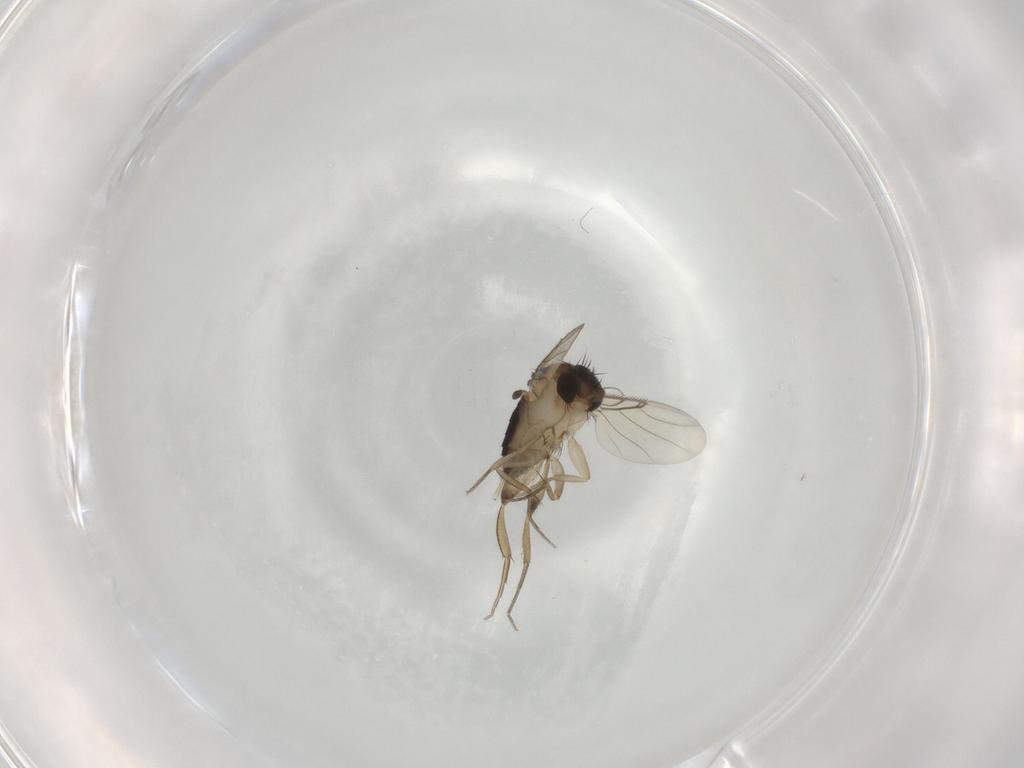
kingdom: Animalia
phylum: Arthropoda
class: Insecta
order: Diptera
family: Phoridae
